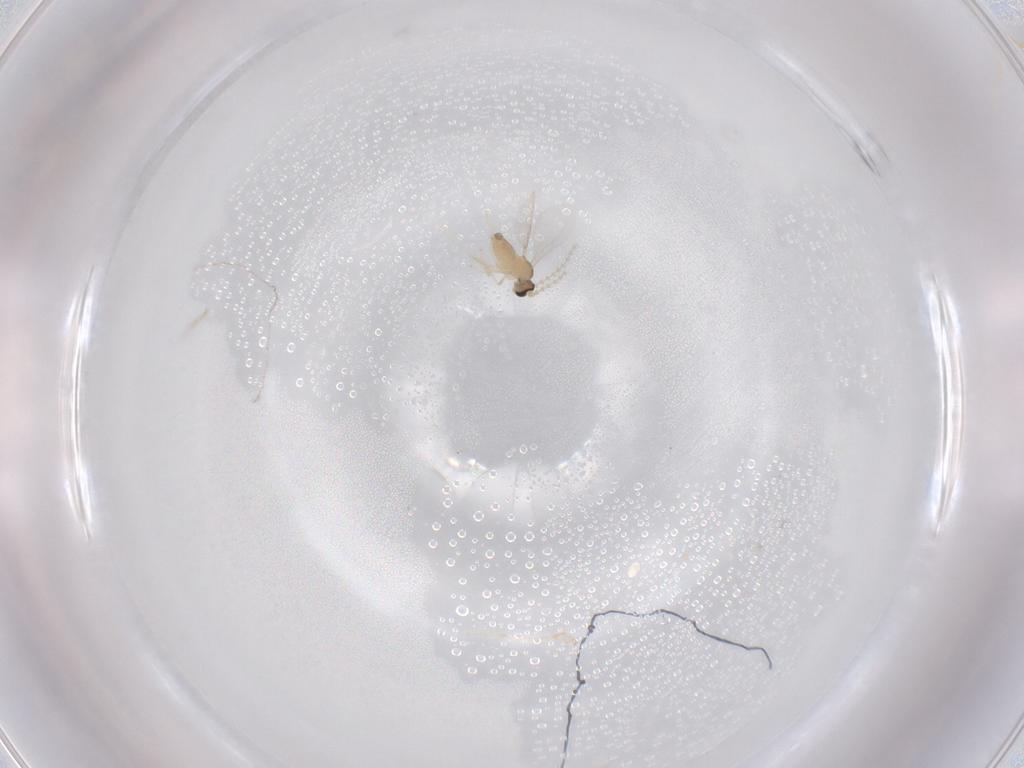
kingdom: Animalia
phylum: Arthropoda
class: Insecta
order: Diptera
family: Cecidomyiidae
